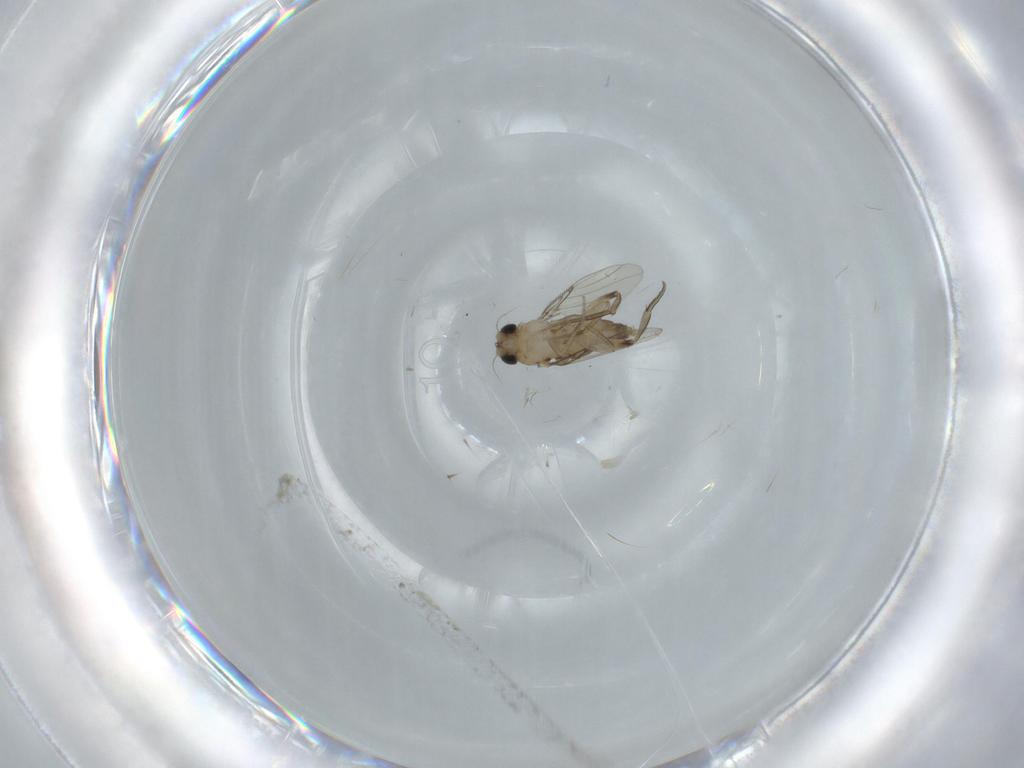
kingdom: Animalia
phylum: Arthropoda
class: Insecta
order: Diptera
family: Phoridae
